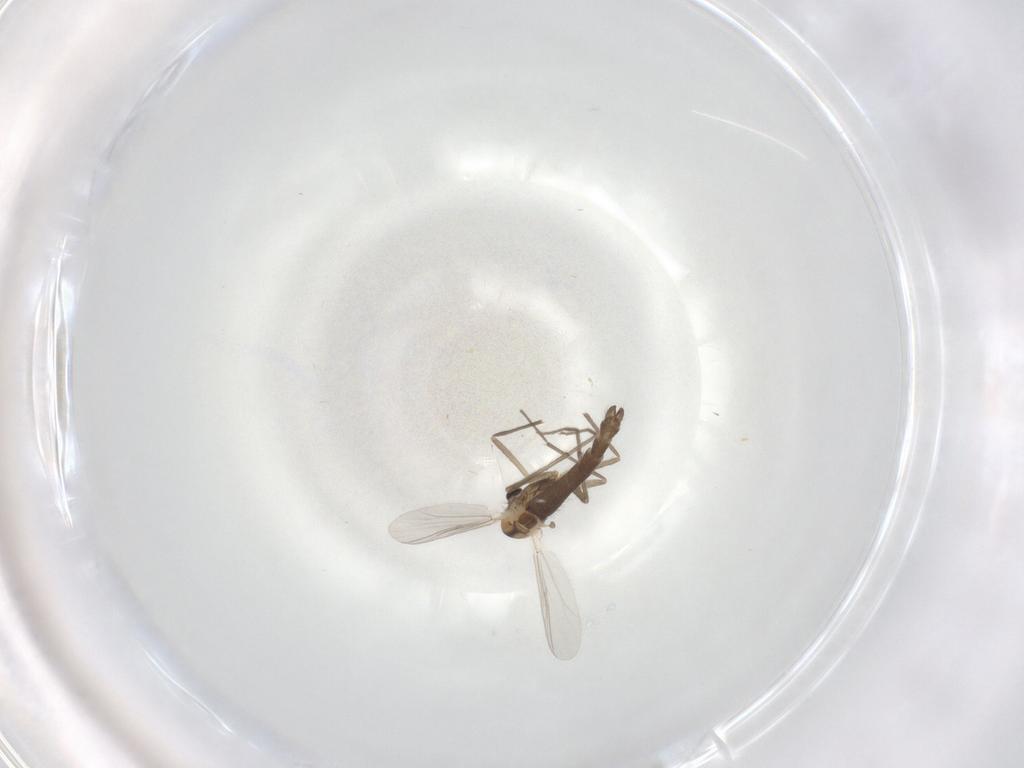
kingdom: Animalia
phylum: Arthropoda
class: Insecta
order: Diptera
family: Chironomidae
